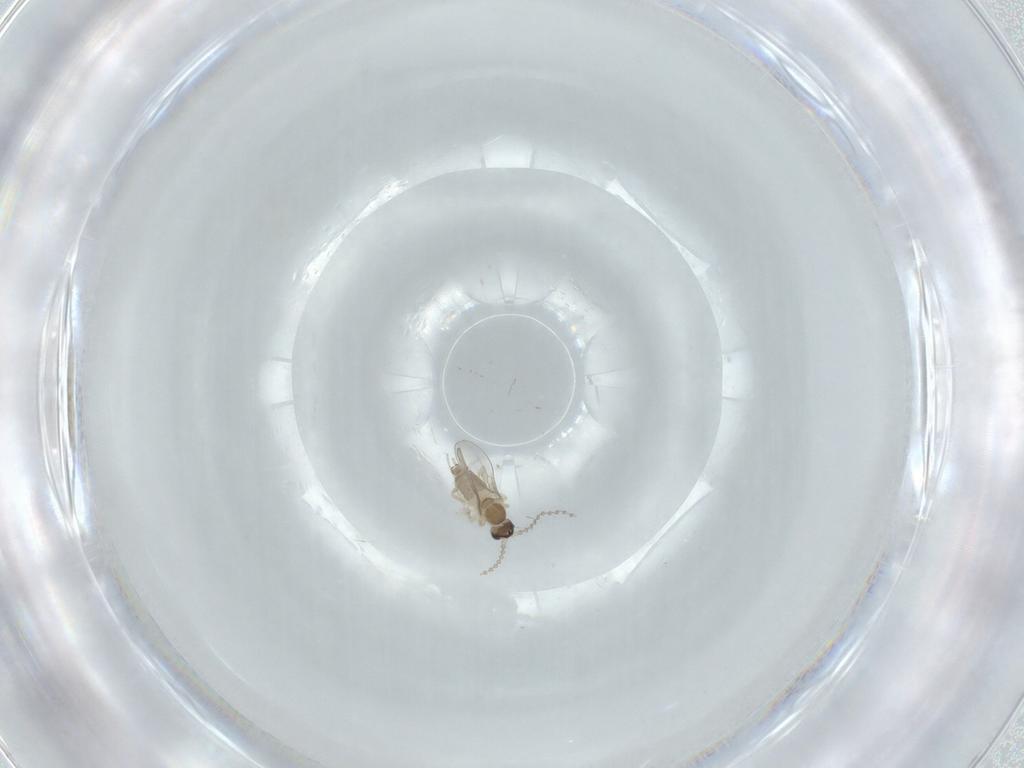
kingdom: Animalia
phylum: Arthropoda
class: Insecta
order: Diptera
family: Cecidomyiidae
